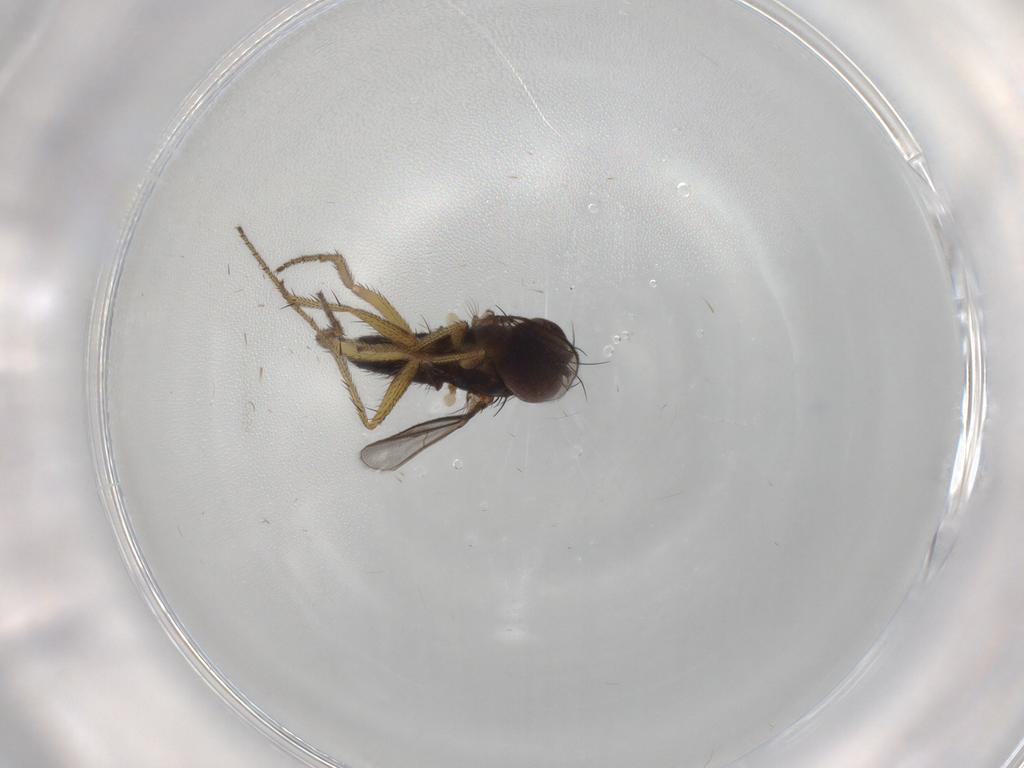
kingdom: Animalia
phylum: Arthropoda
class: Insecta
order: Diptera
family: Dolichopodidae
